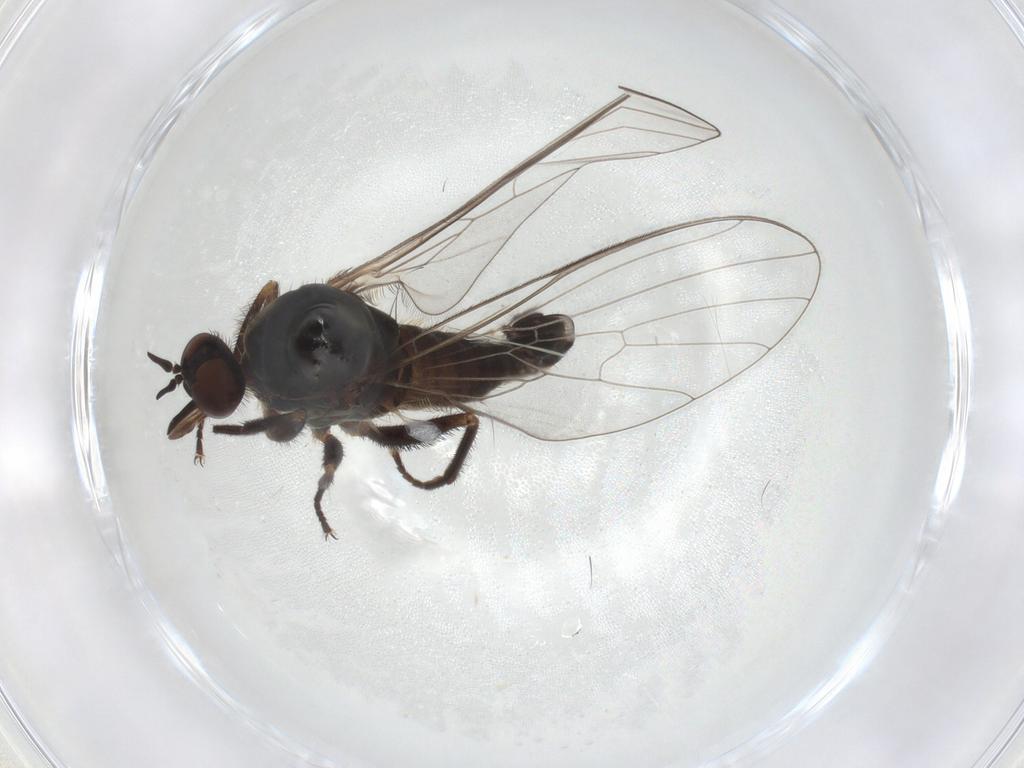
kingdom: Animalia
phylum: Arthropoda
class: Insecta
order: Diptera
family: Empididae
